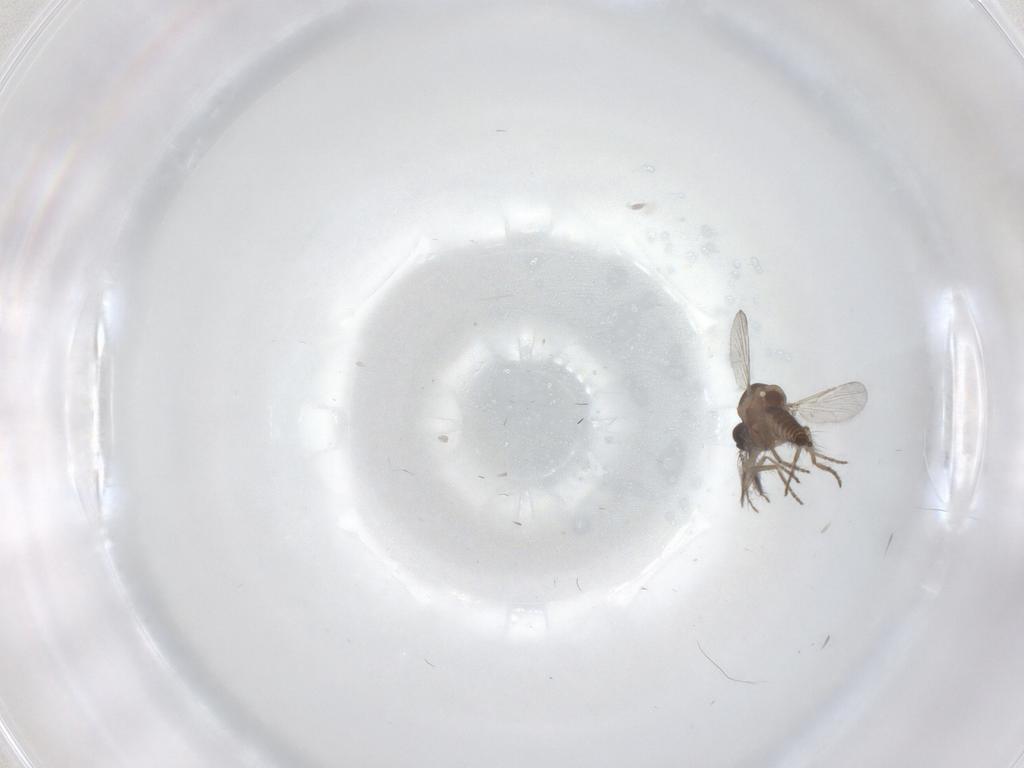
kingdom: Animalia
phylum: Arthropoda
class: Insecta
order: Diptera
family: Ceratopogonidae
